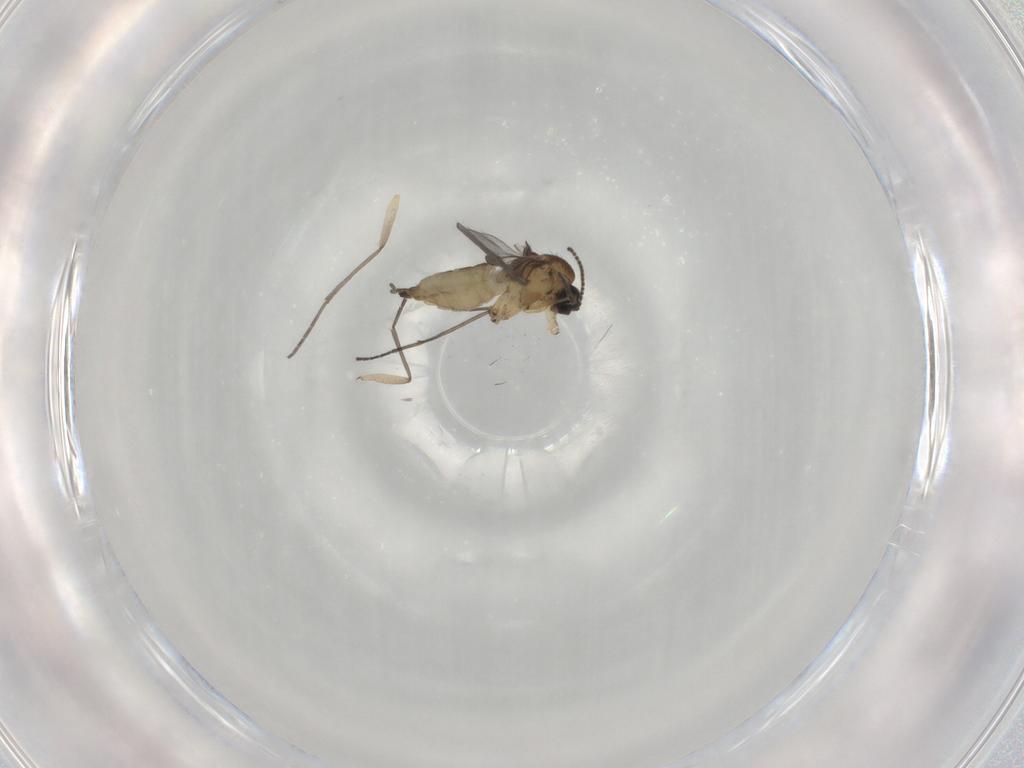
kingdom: Animalia
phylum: Arthropoda
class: Insecta
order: Diptera
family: Sciaridae
